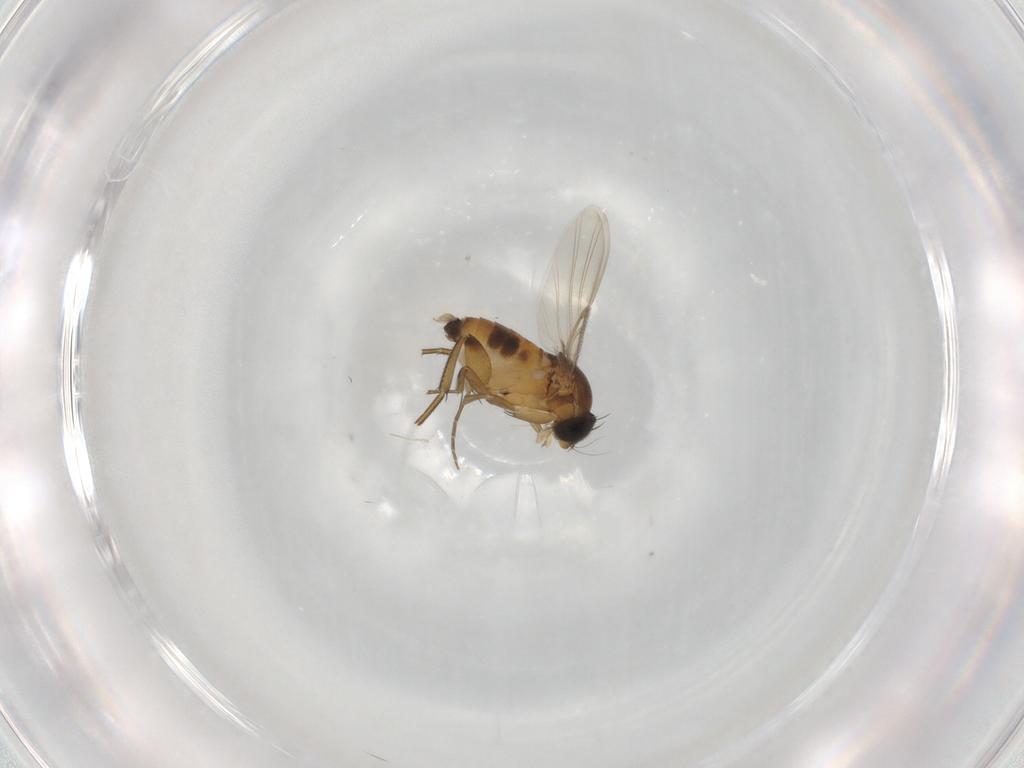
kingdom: Animalia
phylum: Arthropoda
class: Insecta
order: Diptera
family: Phoridae
